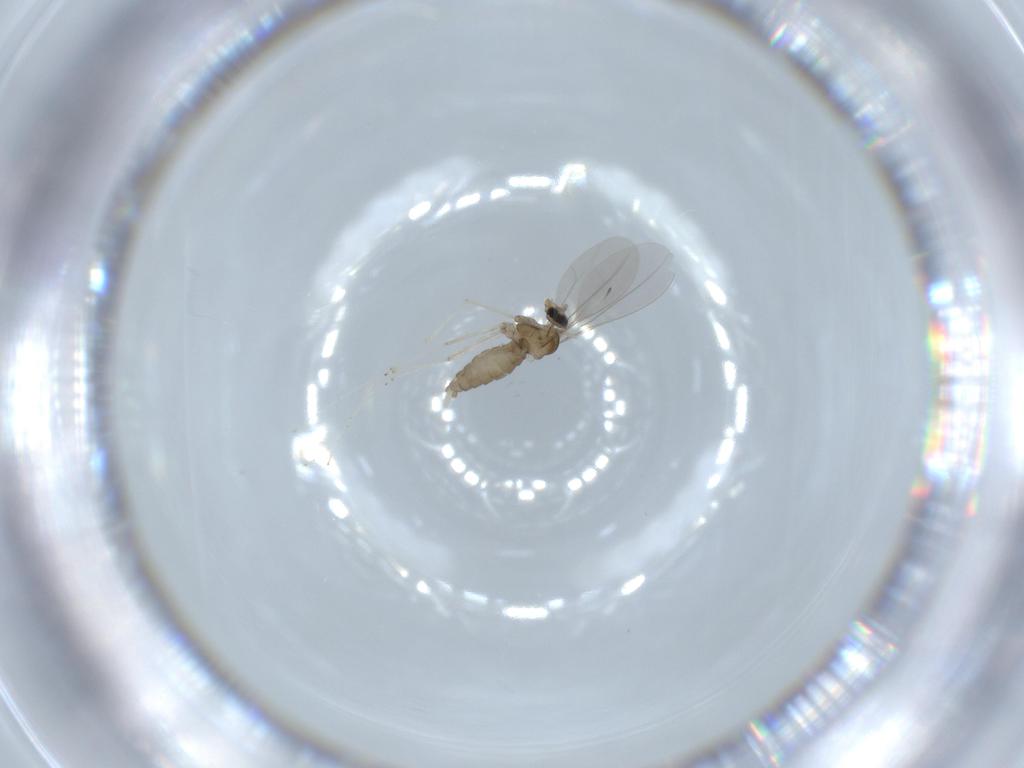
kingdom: Animalia
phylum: Arthropoda
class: Insecta
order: Diptera
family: Cecidomyiidae
